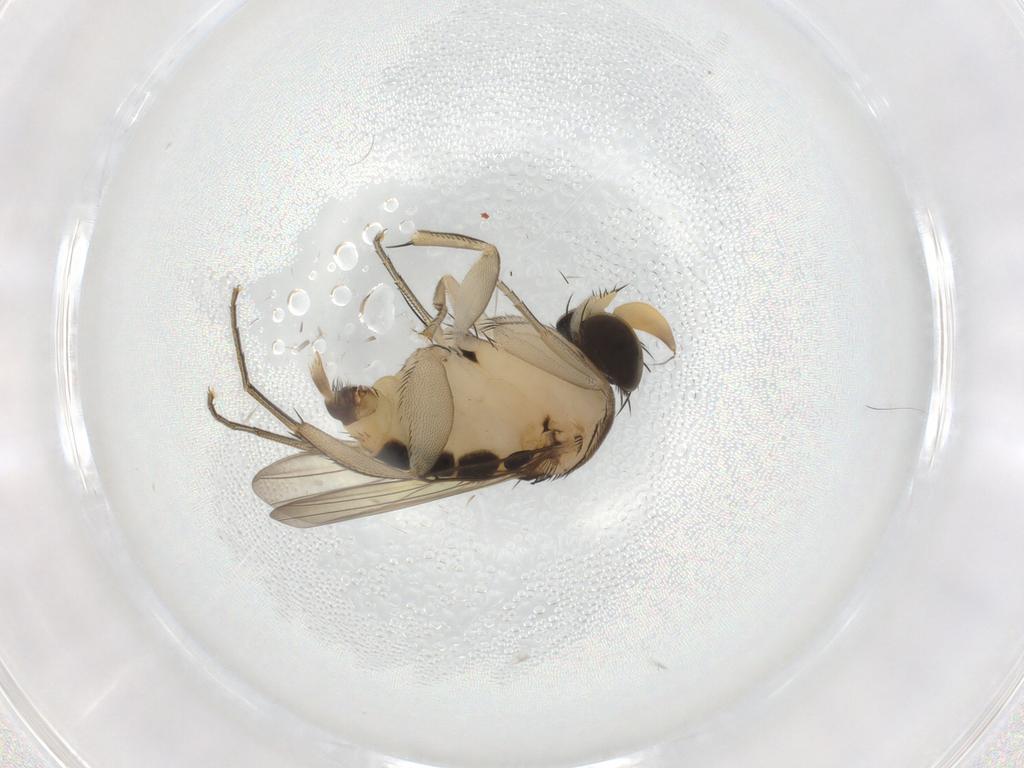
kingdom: Animalia
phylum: Arthropoda
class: Insecta
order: Diptera
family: Phoridae
